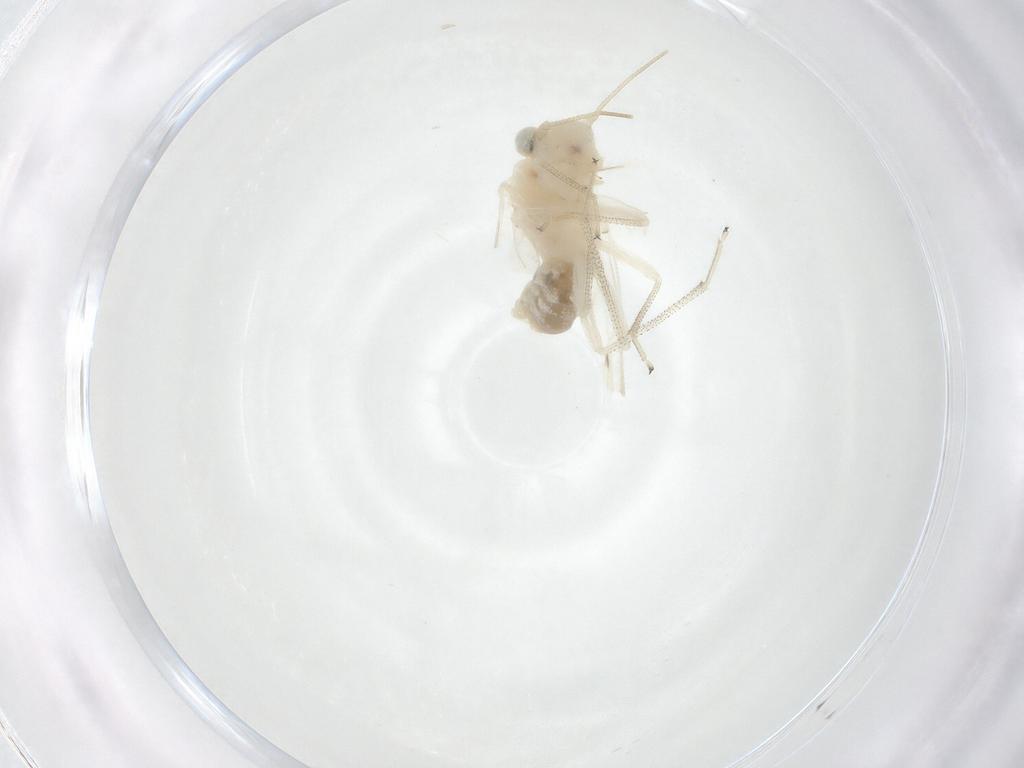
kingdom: Animalia
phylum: Arthropoda
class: Insecta
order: Psocodea
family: Caeciliusidae
